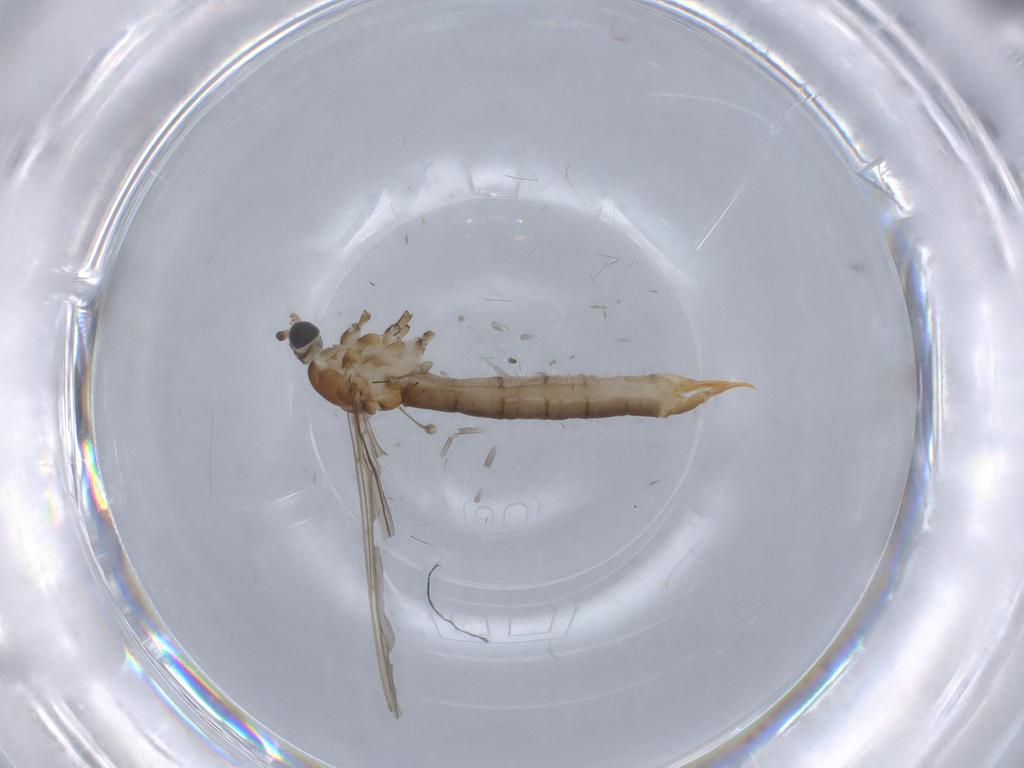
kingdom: Animalia
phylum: Arthropoda
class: Insecta
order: Diptera
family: Limoniidae
